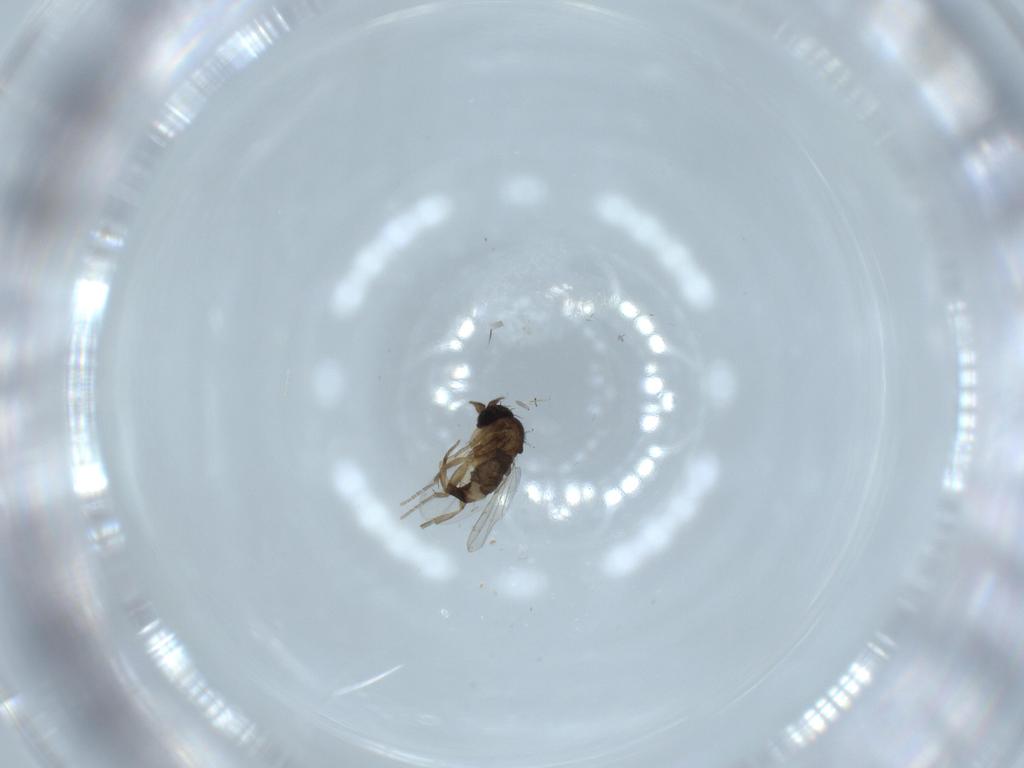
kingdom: Animalia
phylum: Arthropoda
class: Insecta
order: Diptera
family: Phoridae
